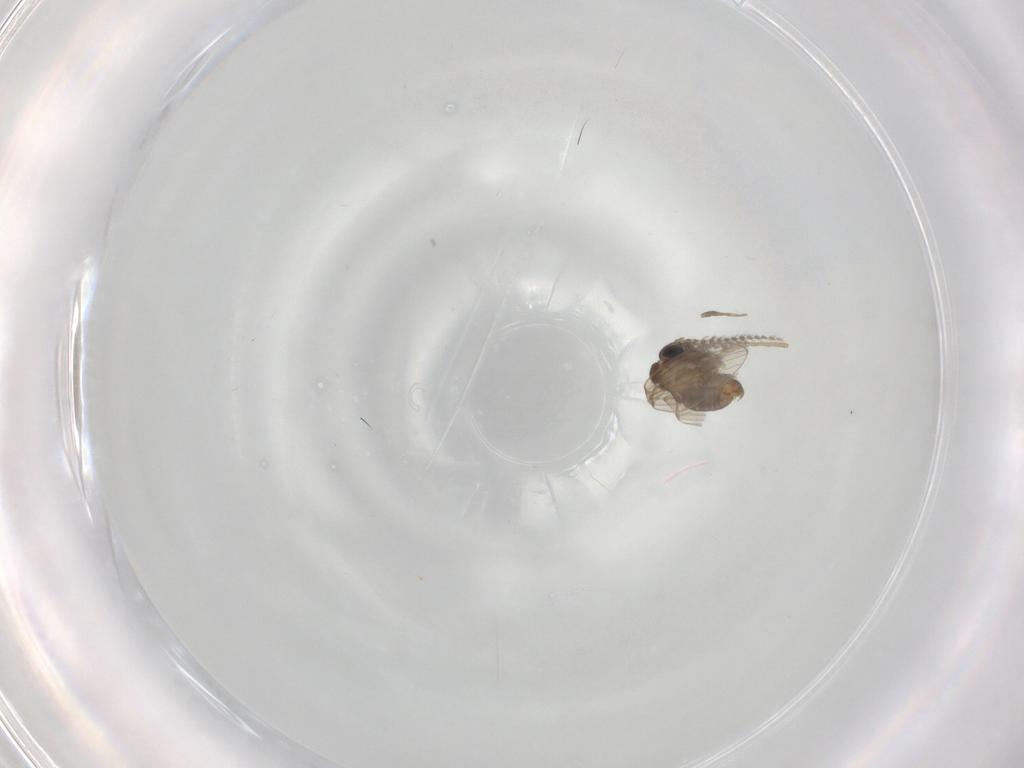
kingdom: Animalia
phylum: Arthropoda
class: Insecta
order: Diptera
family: Psychodidae
